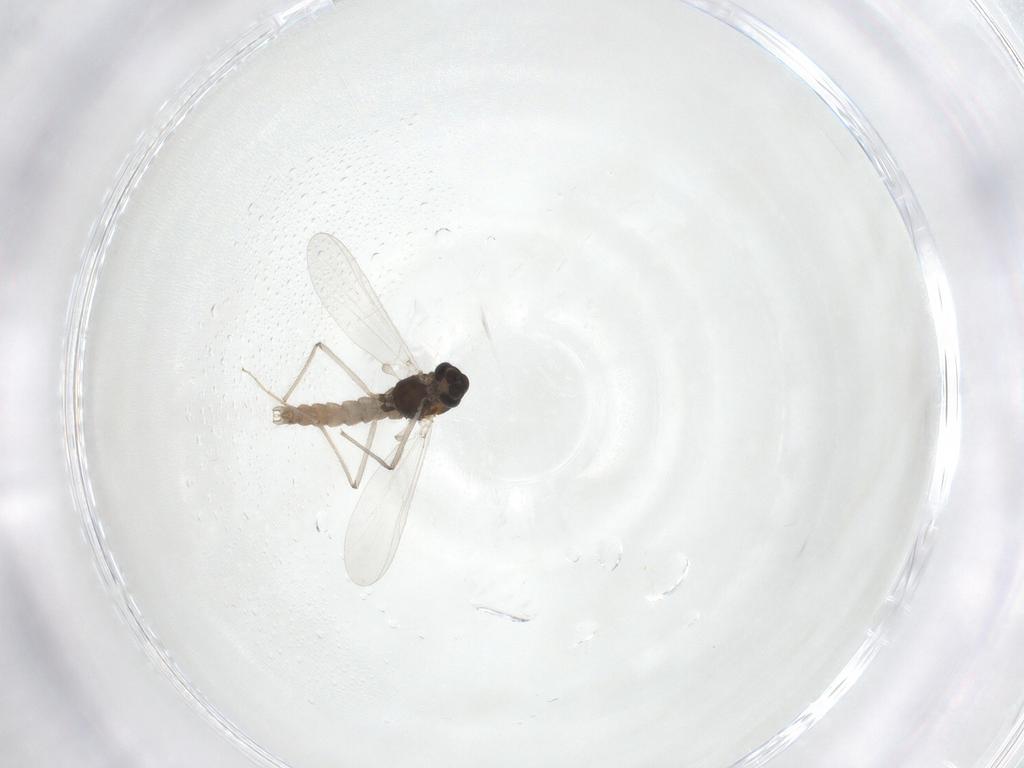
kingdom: Animalia
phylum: Arthropoda
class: Insecta
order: Diptera
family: Chironomidae
